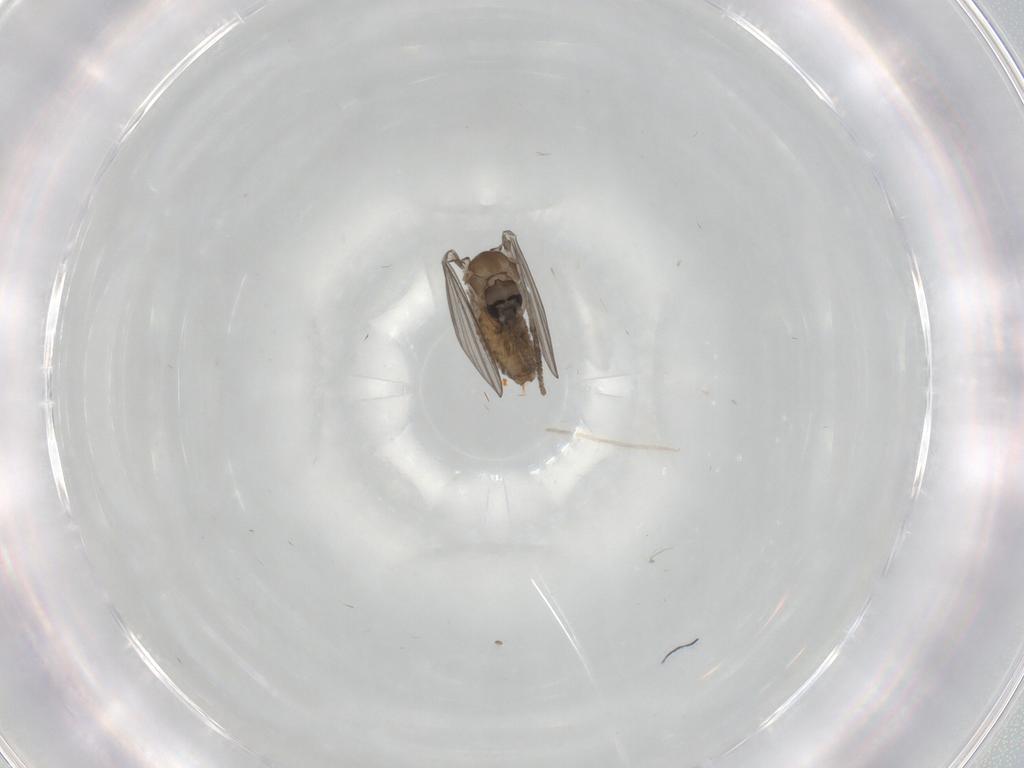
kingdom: Animalia
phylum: Arthropoda
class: Insecta
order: Diptera
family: Psychodidae
